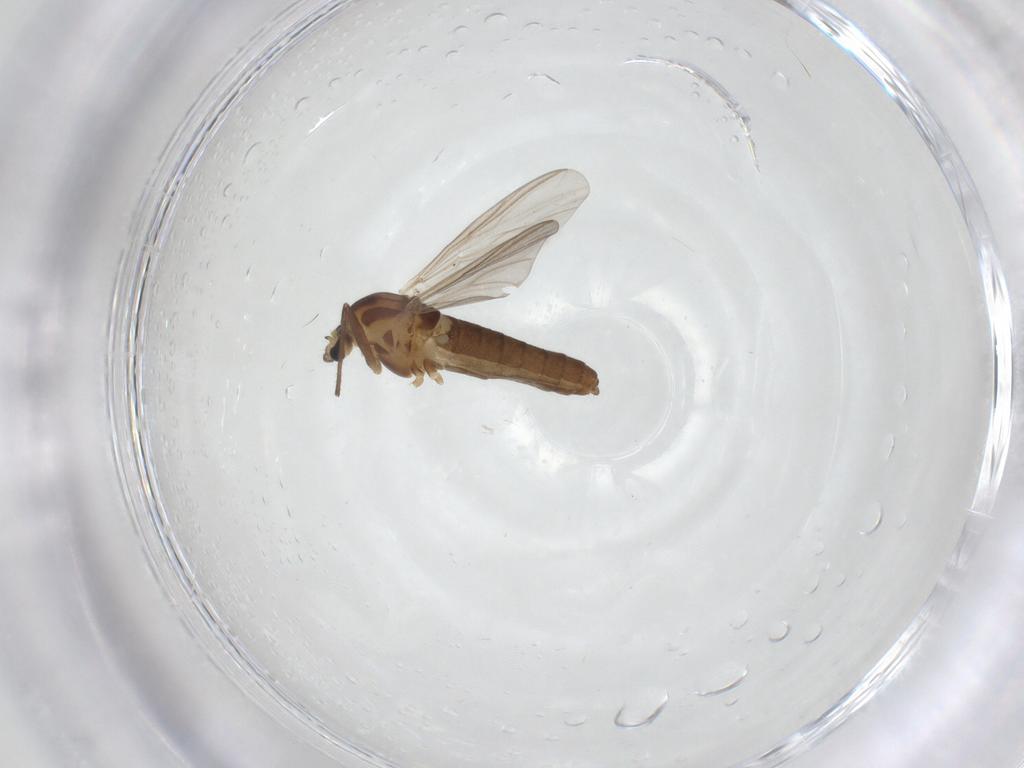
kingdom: Animalia
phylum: Arthropoda
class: Insecta
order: Diptera
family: Chironomidae
